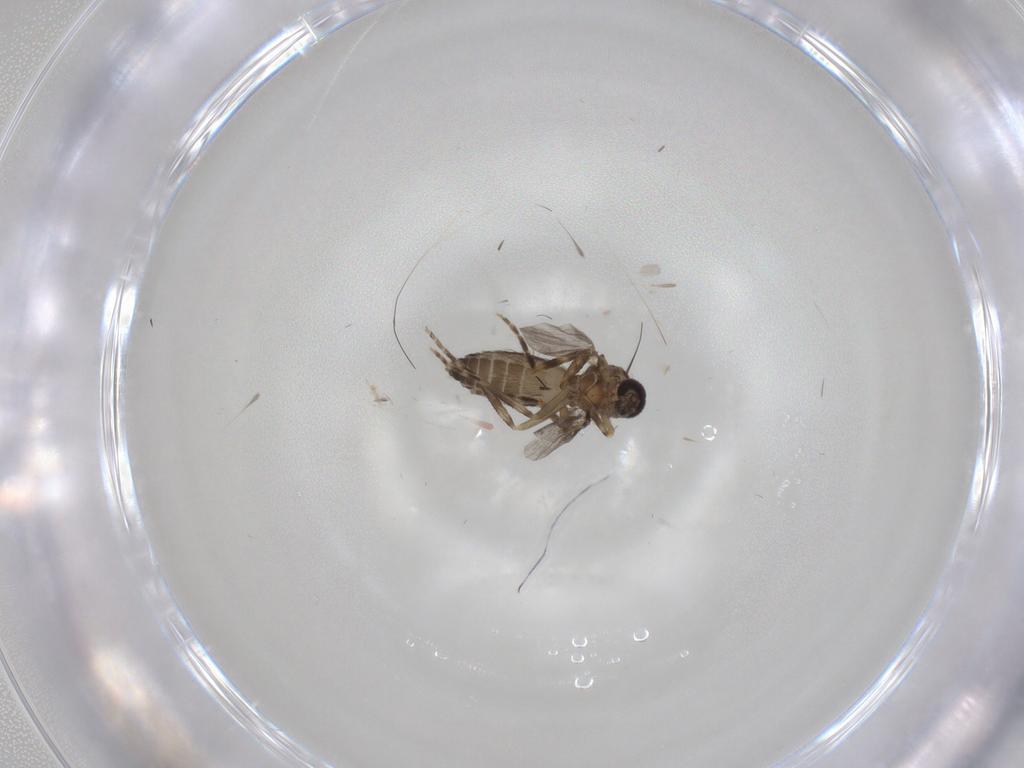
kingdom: Animalia
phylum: Arthropoda
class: Insecta
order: Diptera
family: Ceratopogonidae
